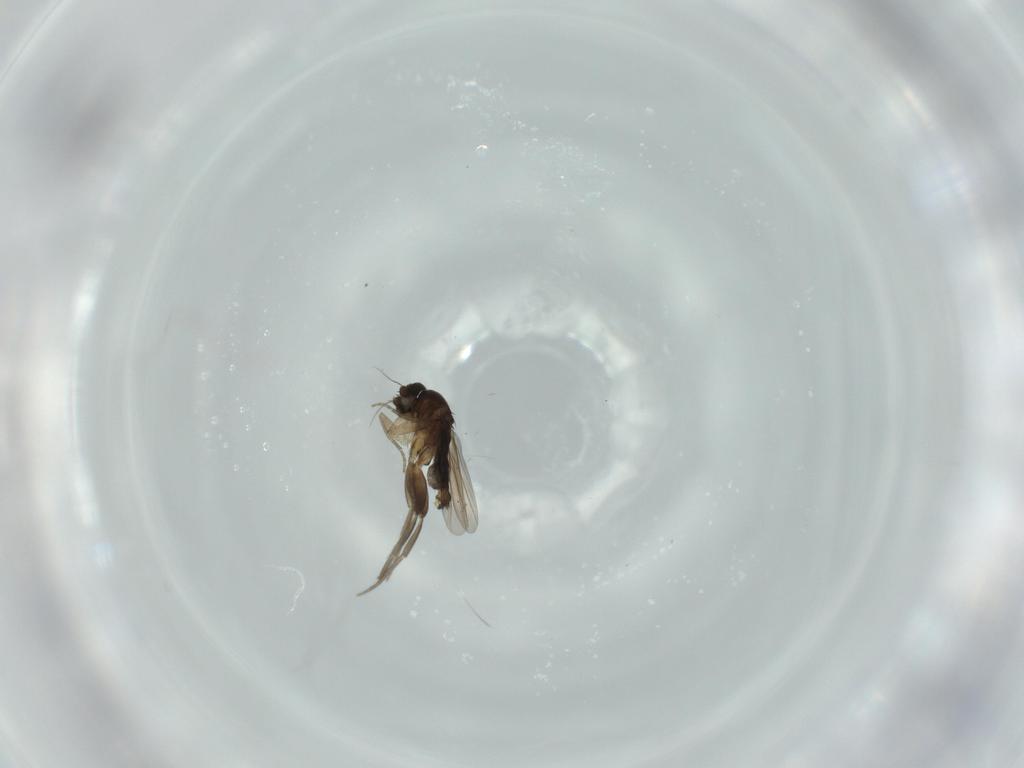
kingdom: Animalia
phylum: Arthropoda
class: Insecta
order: Diptera
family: Phoridae
